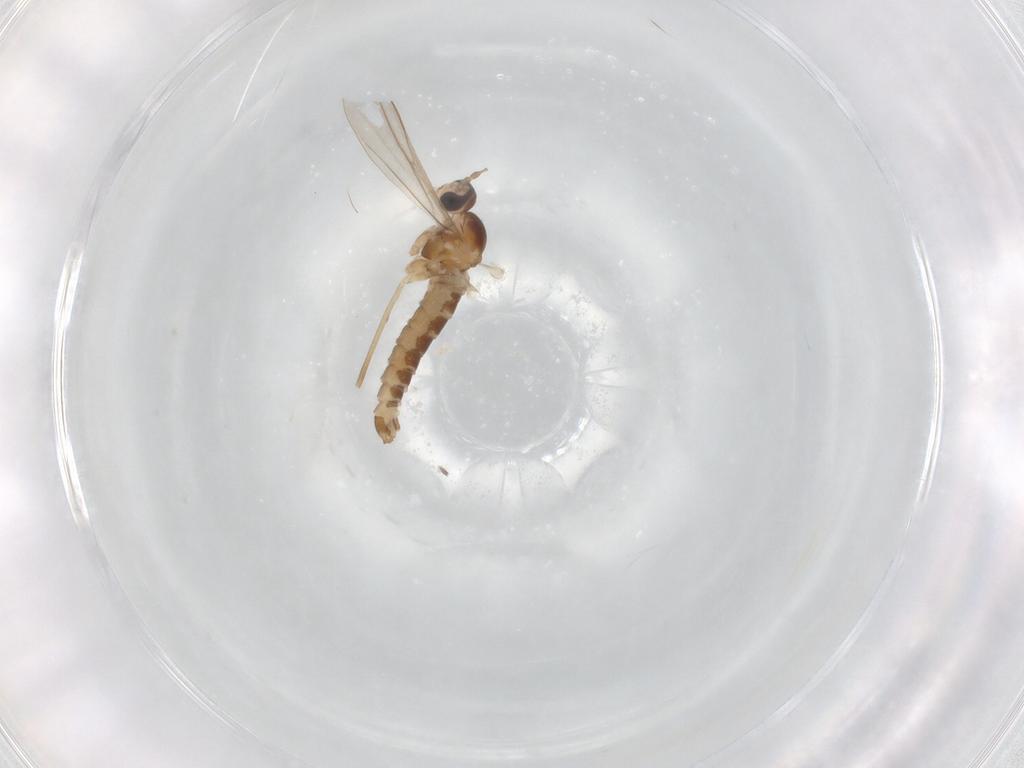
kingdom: Animalia
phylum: Arthropoda
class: Insecta
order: Diptera
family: Cecidomyiidae
